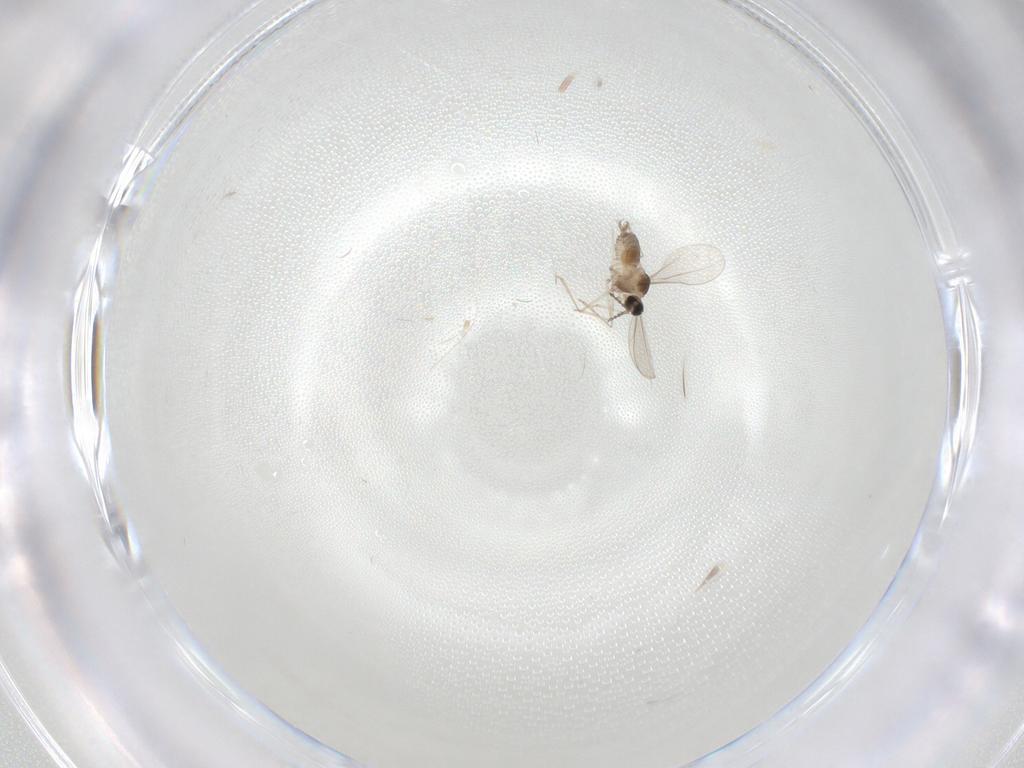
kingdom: Animalia
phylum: Arthropoda
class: Insecta
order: Diptera
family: Cecidomyiidae
